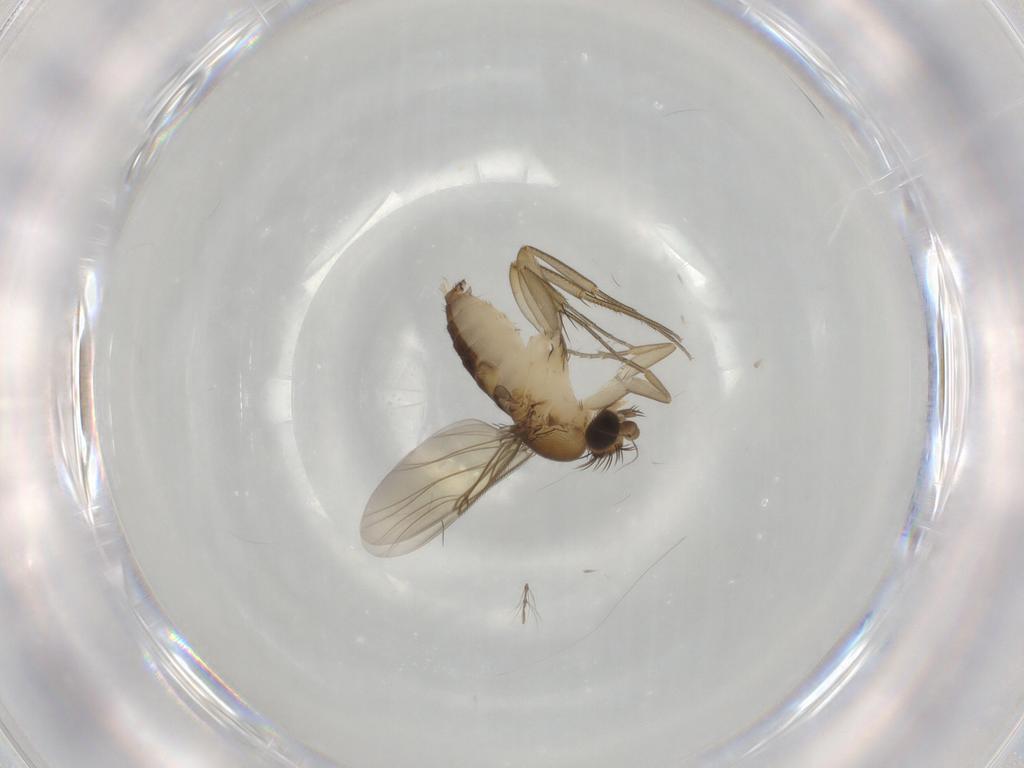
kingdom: Animalia
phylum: Arthropoda
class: Insecta
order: Diptera
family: Phoridae
